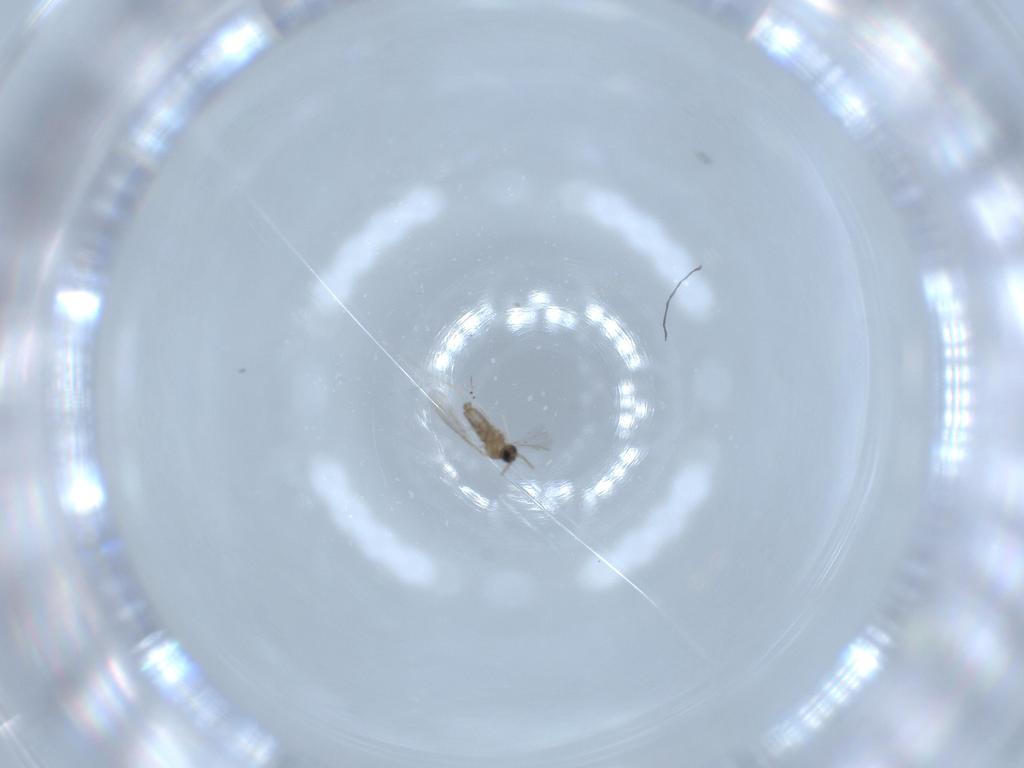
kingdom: Animalia
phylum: Arthropoda
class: Insecta
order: Diptera
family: Cecidomyiidae
